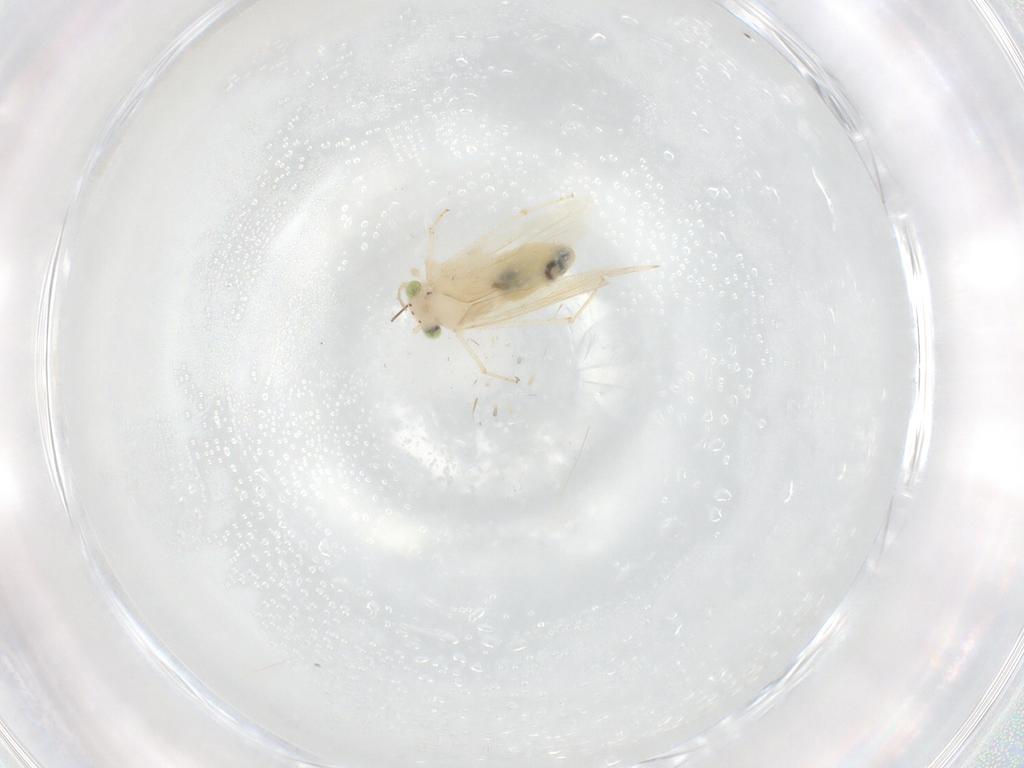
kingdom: Animalia
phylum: Arthropoda
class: Insecta
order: Psocodea
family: Lepidopsocidae
